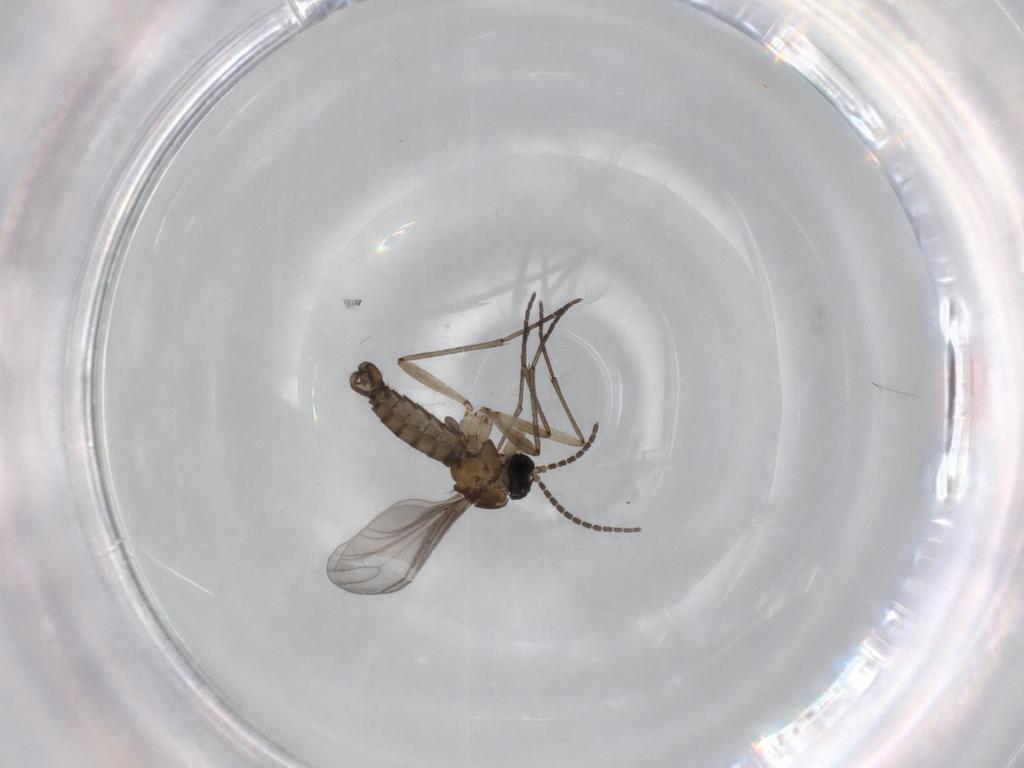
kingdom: Animalia
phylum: Arthropoda
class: Insecta
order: Diptera
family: Sciaridae
